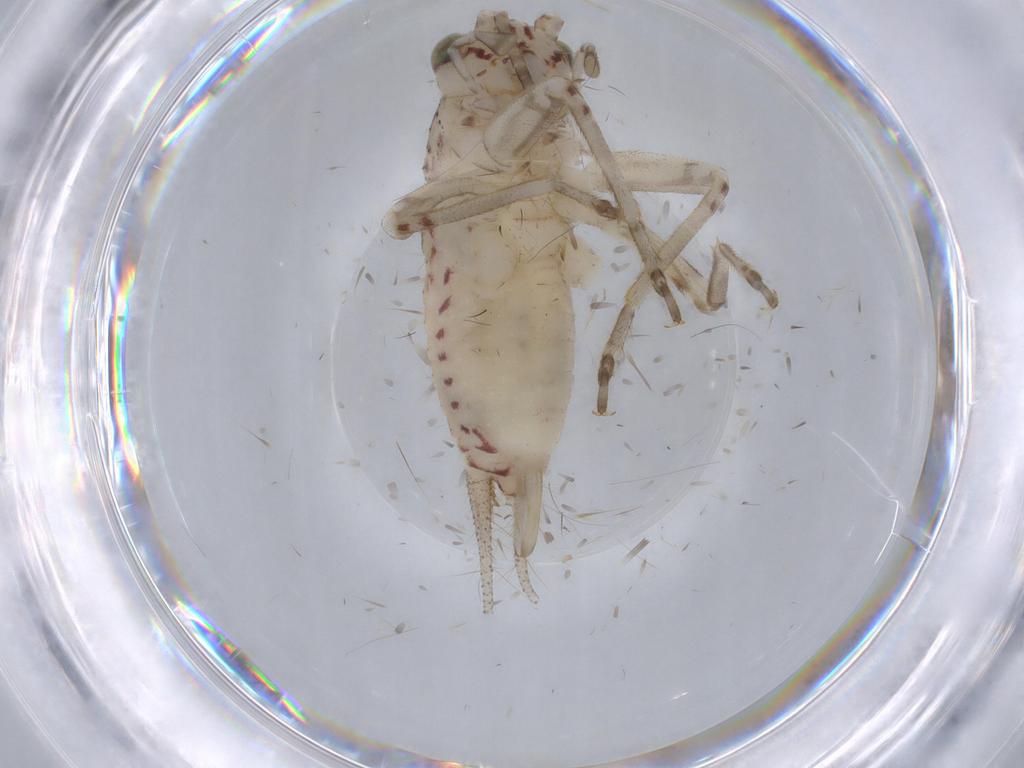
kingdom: Animalia
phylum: Arthropoda
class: Insecta
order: Orthoptera
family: Trigonidiidae
